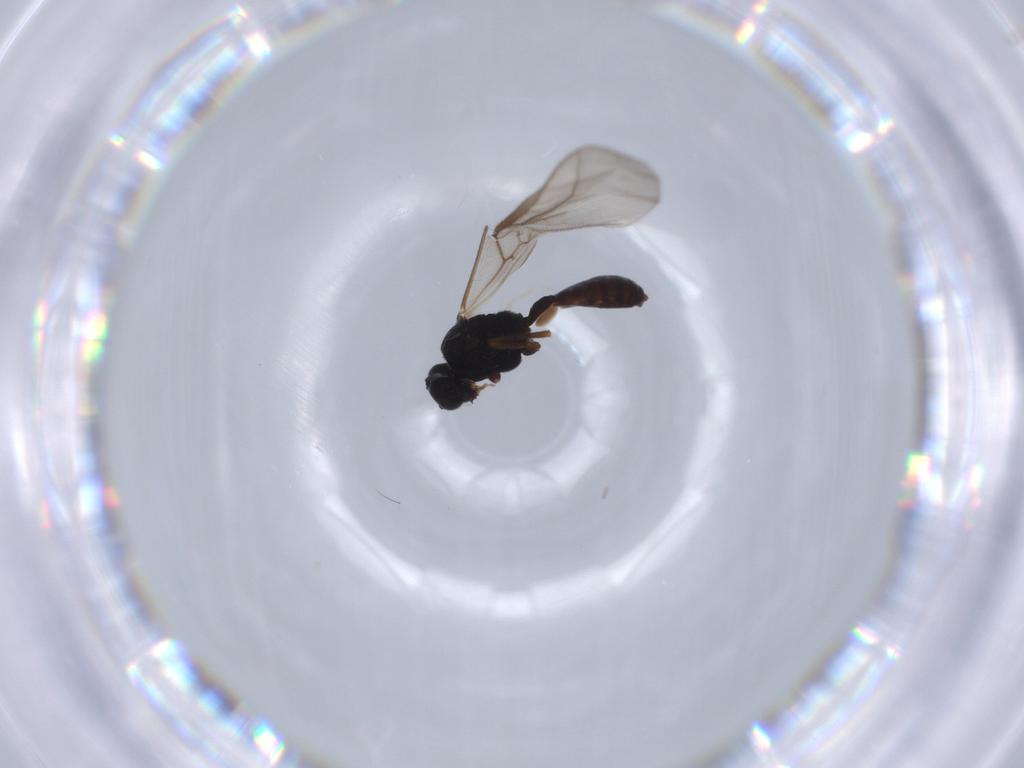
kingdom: Animalia
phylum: Arthropoda
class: Insecta
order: Hymenoptera
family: Braconidae
